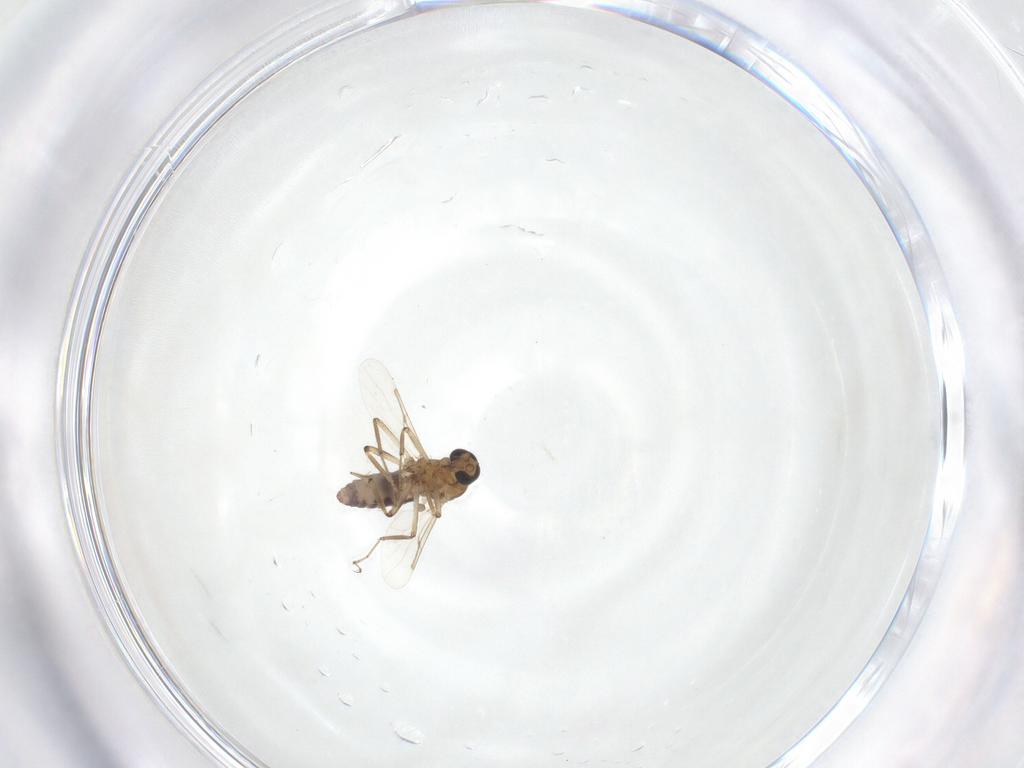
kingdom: Animalia
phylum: Arthropoda
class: Insecta
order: Diptera
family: Ceratopogonidae
